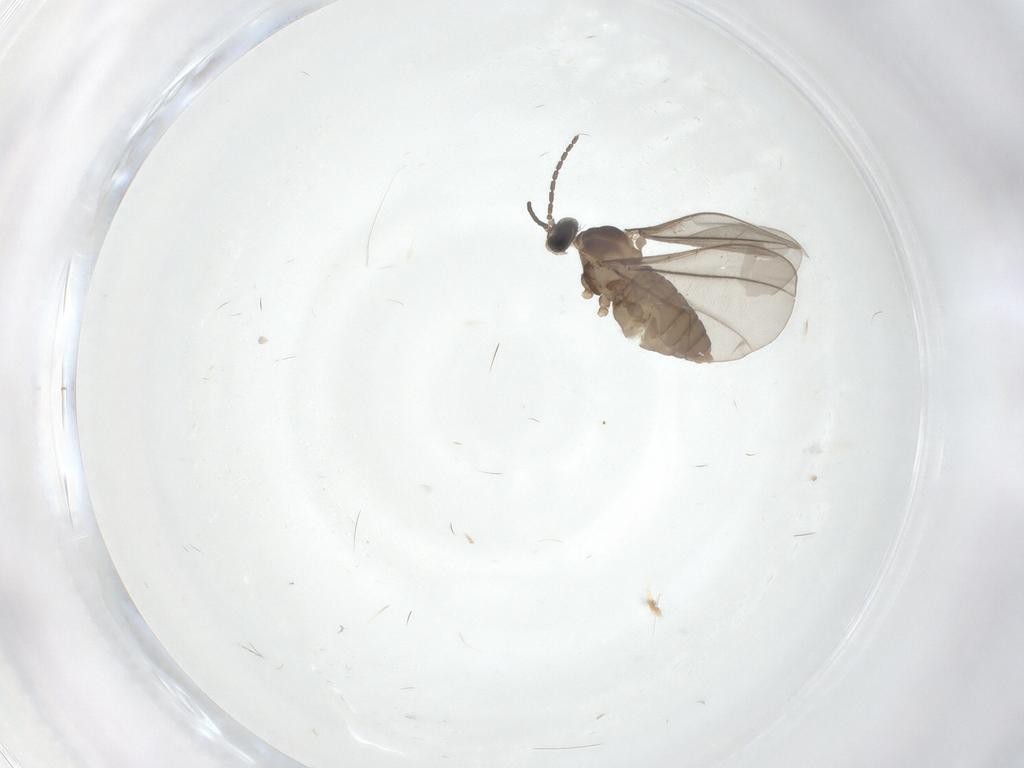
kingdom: Animalia
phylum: Arthropoda
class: Insecta
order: Diptera
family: Cecidomyiidae
